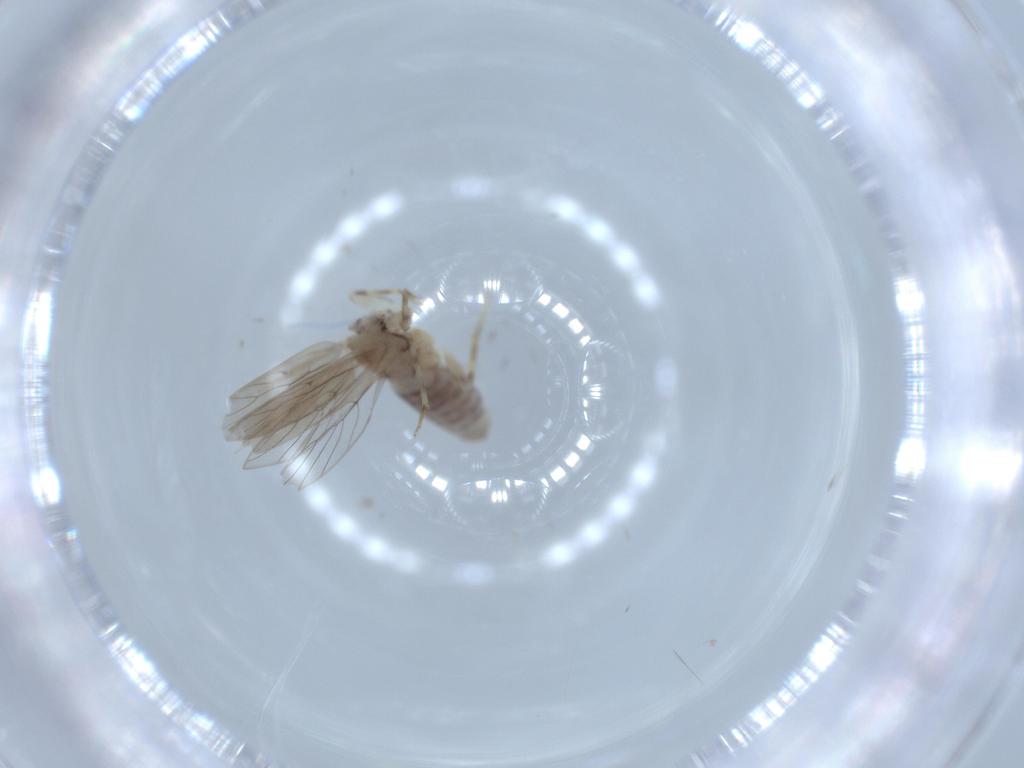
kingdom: Animalia
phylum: Arthropoda
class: Insecta
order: Psocodea
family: Lepidopsocidae
